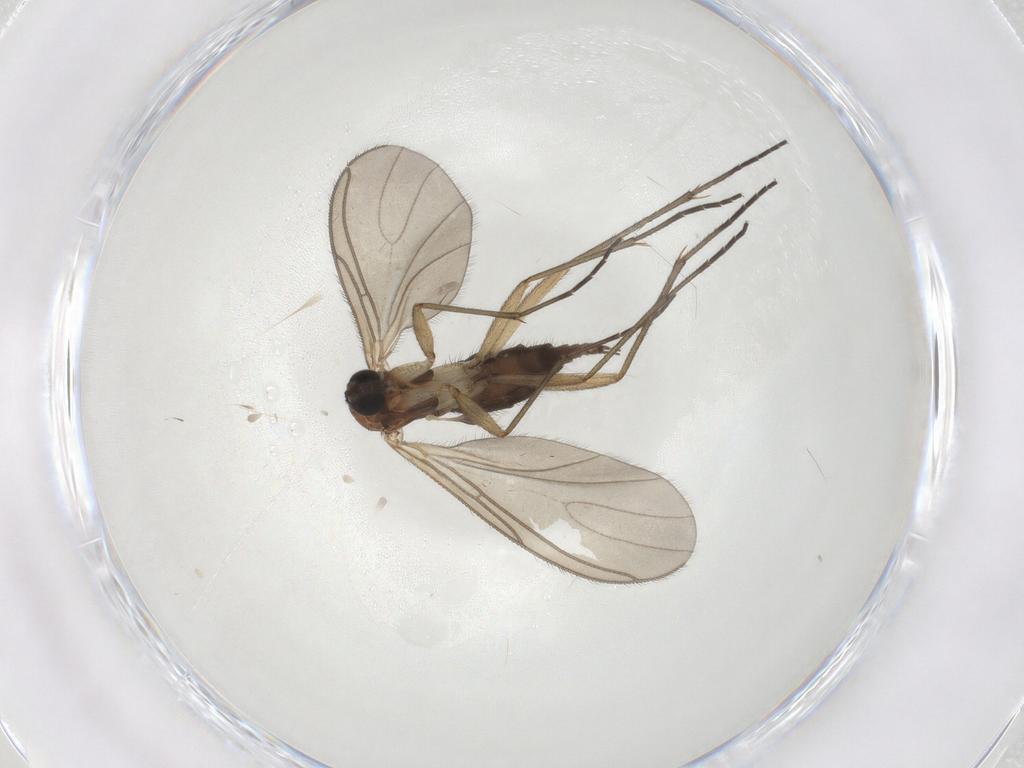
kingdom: Animalia
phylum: Arthropoda
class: Insecta
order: Diptera
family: Sciaridae
